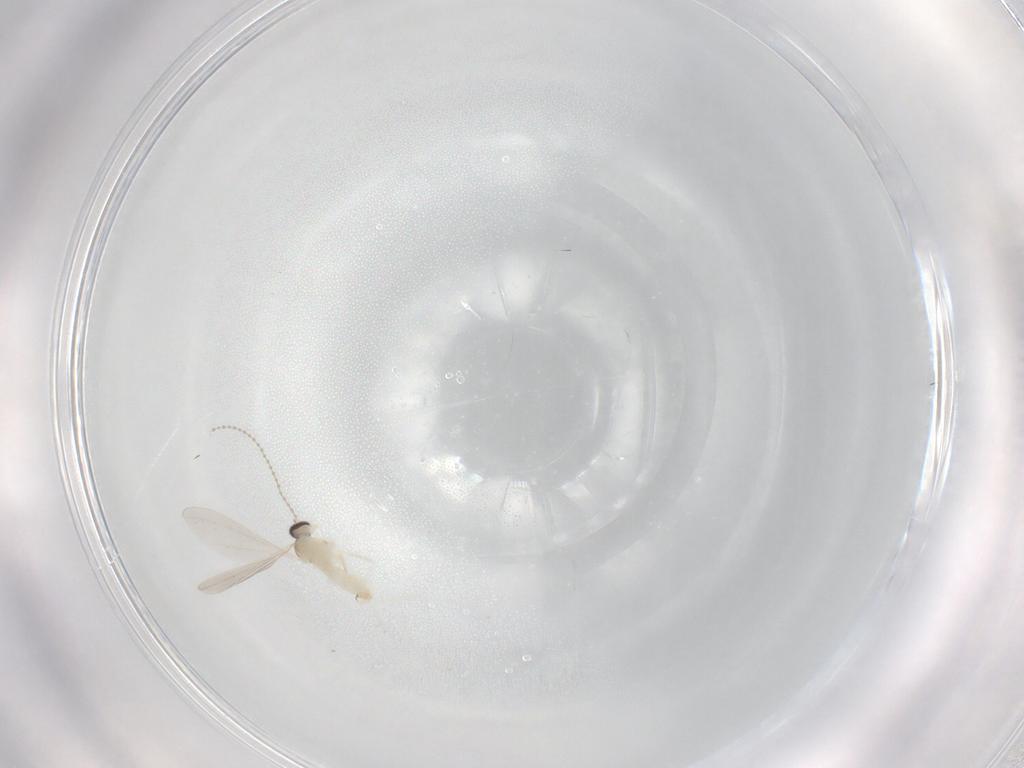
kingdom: Animalia
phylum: Arthropoda
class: Insecta
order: Diptera
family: Cecidomyiidae
